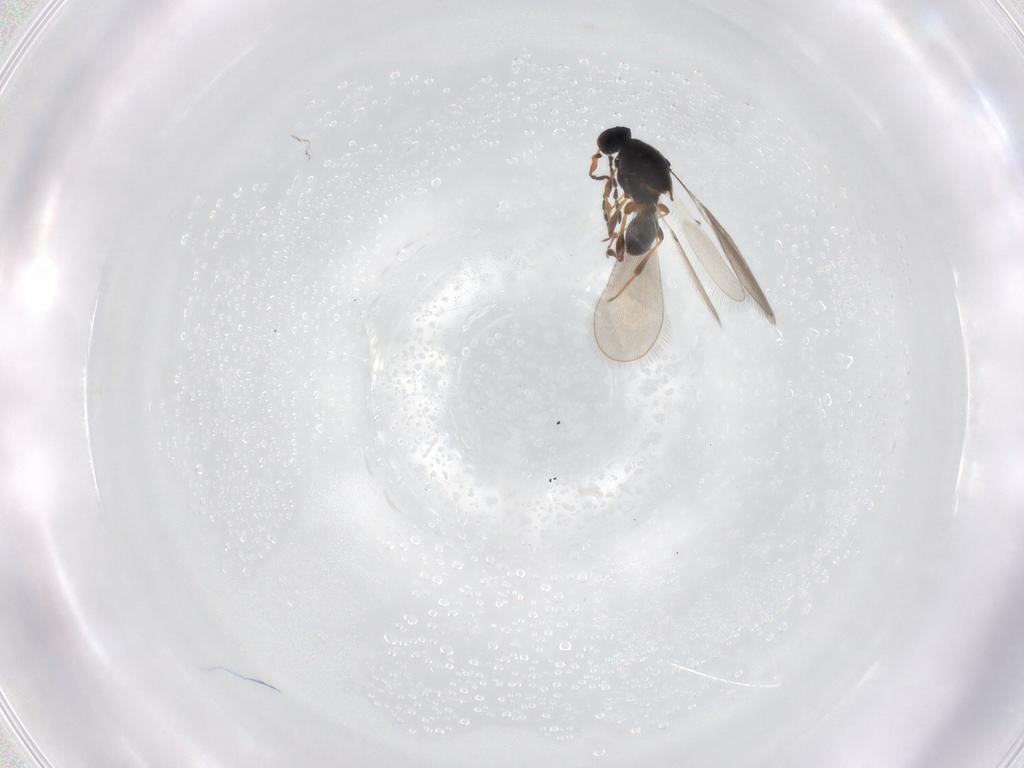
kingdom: Animalia
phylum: Arthropoda
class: Insecta
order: Hymenoptera
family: Platygastridae
